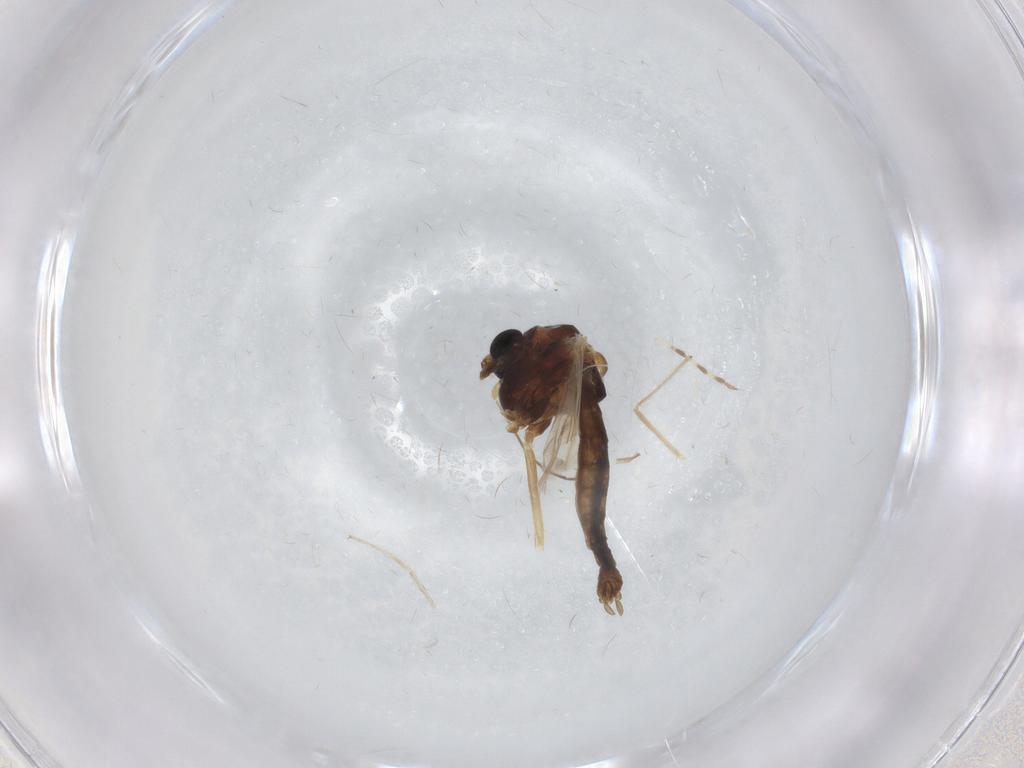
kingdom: Animalia
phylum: Arthropoda
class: Insecta
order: Diptera
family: Chironomidae
